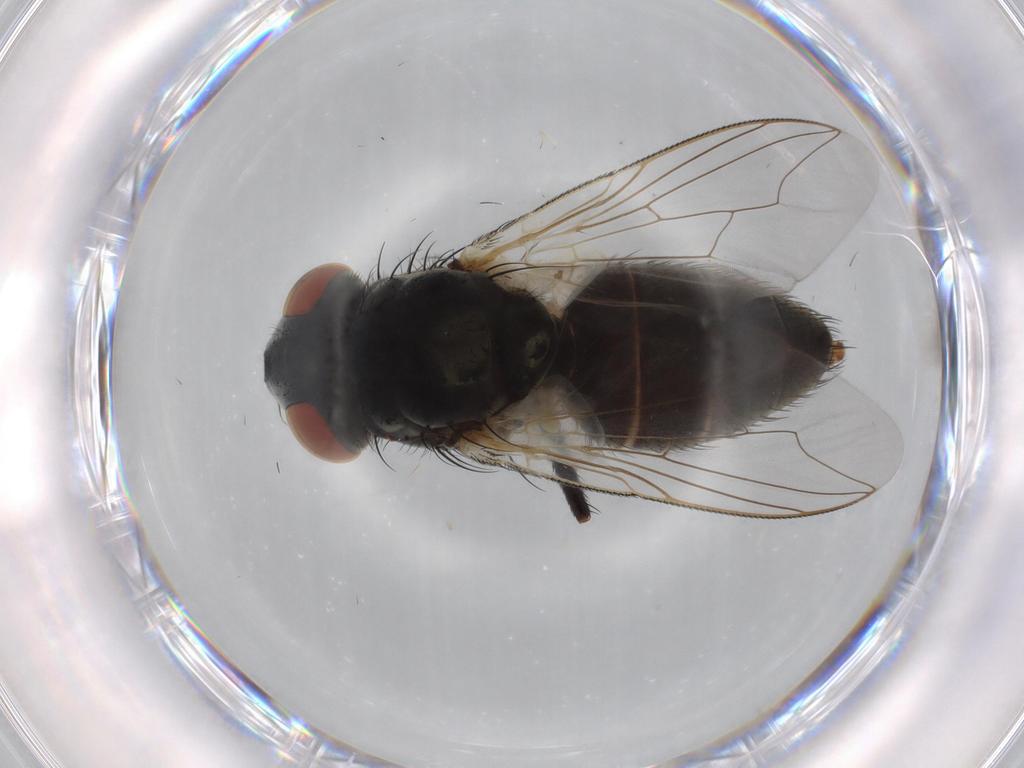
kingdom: Animalia
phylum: Arthropoda
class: Insecta
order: Diptera
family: Sarcophagidae
